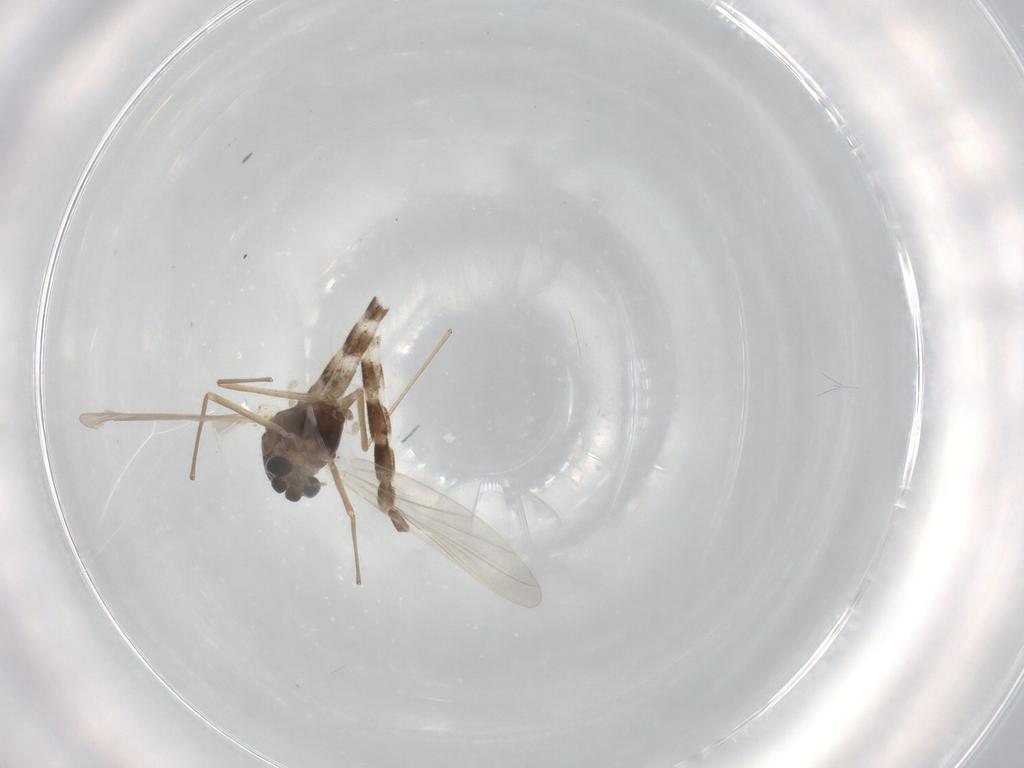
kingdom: Animalia
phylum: Arthropoda
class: Insecta
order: Diptera
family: Chironomidae
